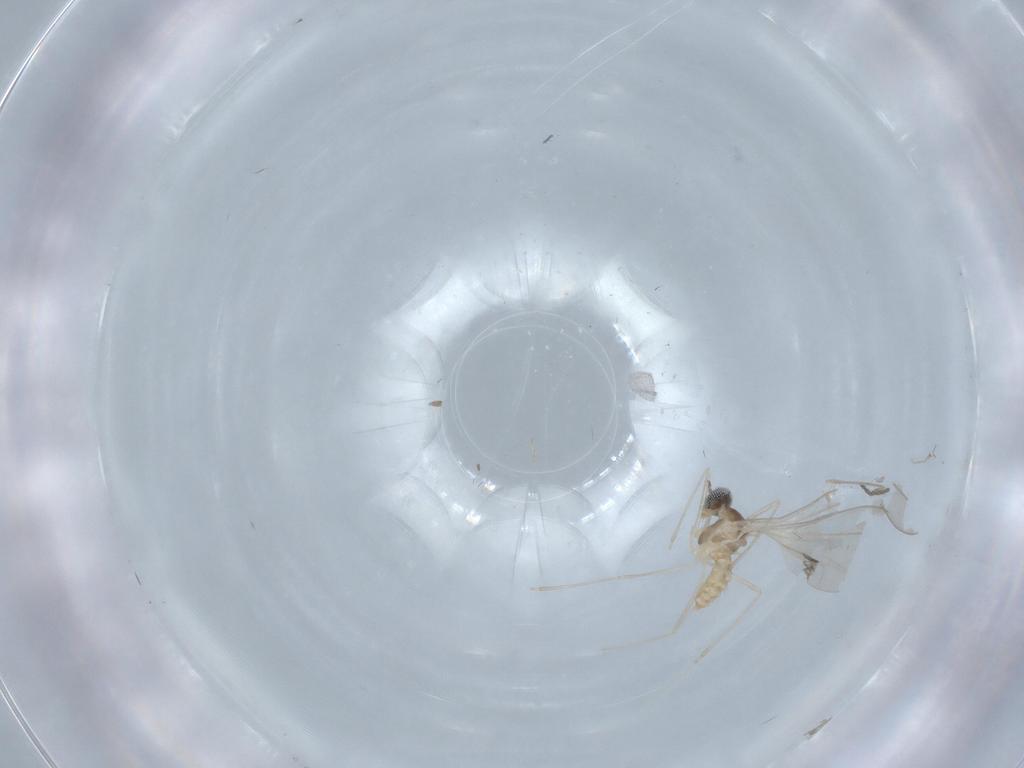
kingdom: Animalia
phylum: Arthropoda
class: Insecta
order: Diptera
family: Cecidomyiidae
